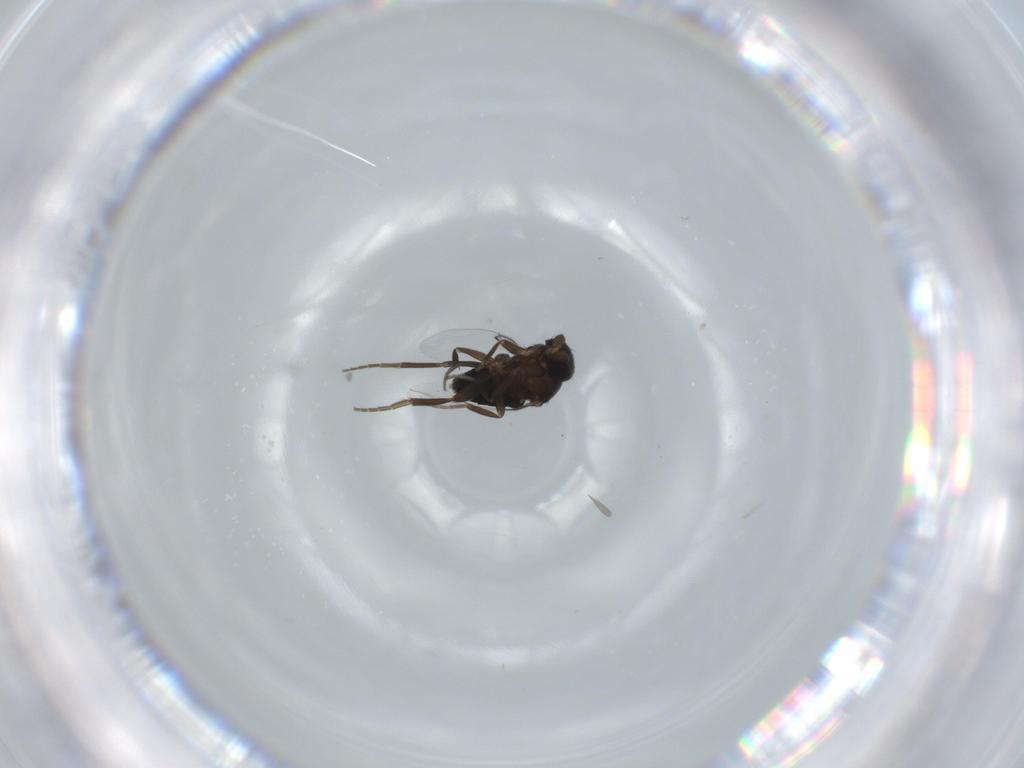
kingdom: Animalia
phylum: Arthropoda
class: Insecta
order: Diptera
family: Phoridae
